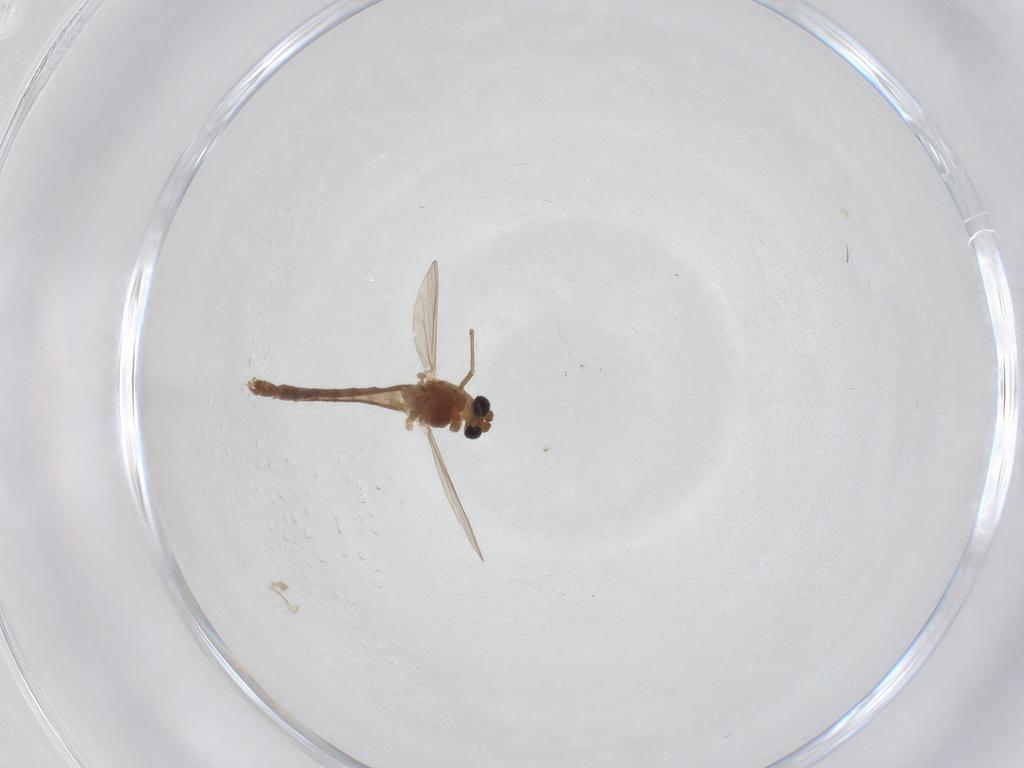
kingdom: Animalia
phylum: Arthropoda
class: Insecta
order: Diptera
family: Chironomidae
